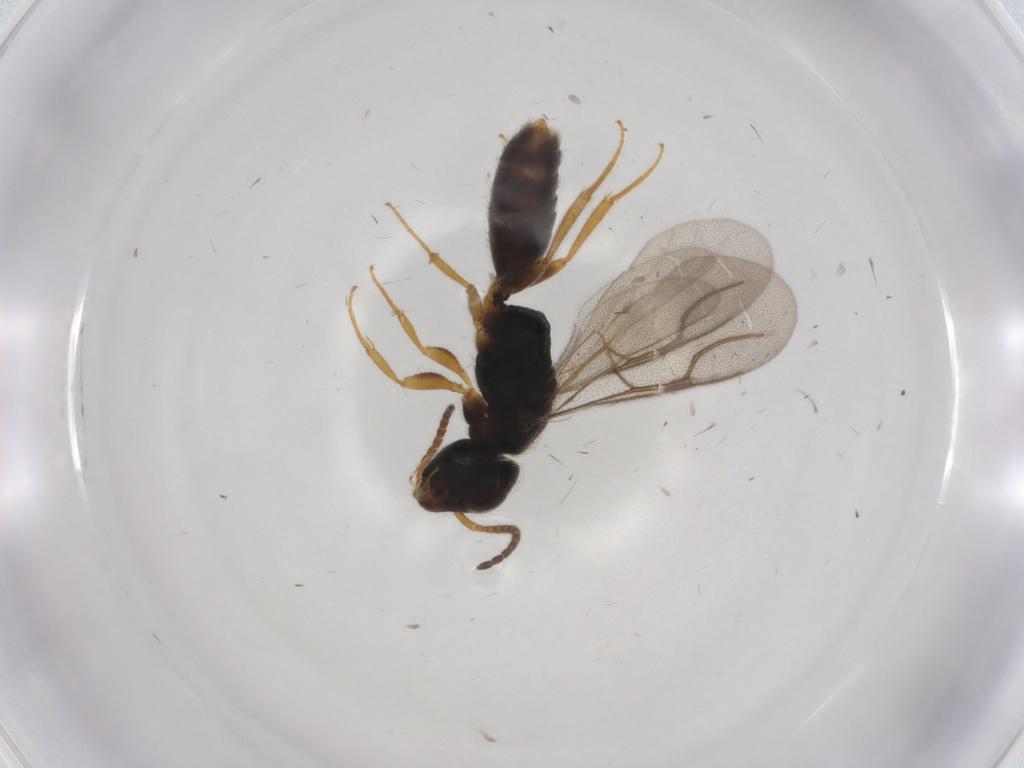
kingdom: Animalia
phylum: Arthropoda
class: Insecta
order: Hymenoptera
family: Bethylidae
